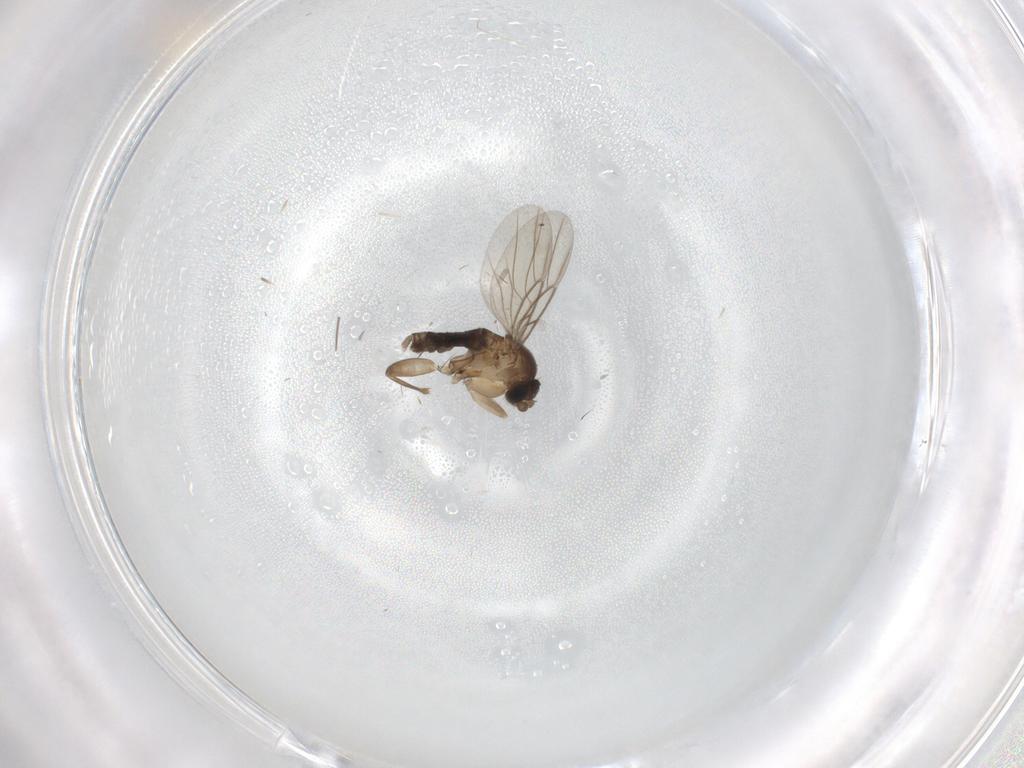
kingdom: Animalia
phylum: Arthropoda
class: Insecta
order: Diptera
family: Phoridae
